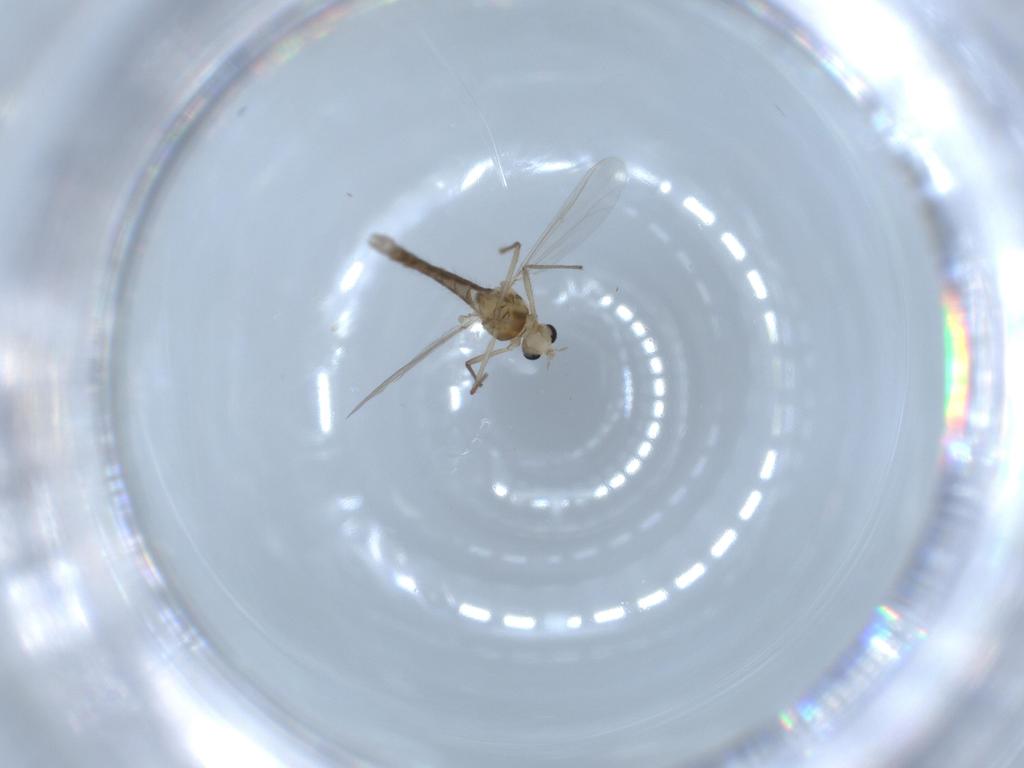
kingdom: Animalia
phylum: Arthropoda
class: Insecta
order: Diptera
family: Chironomidae
